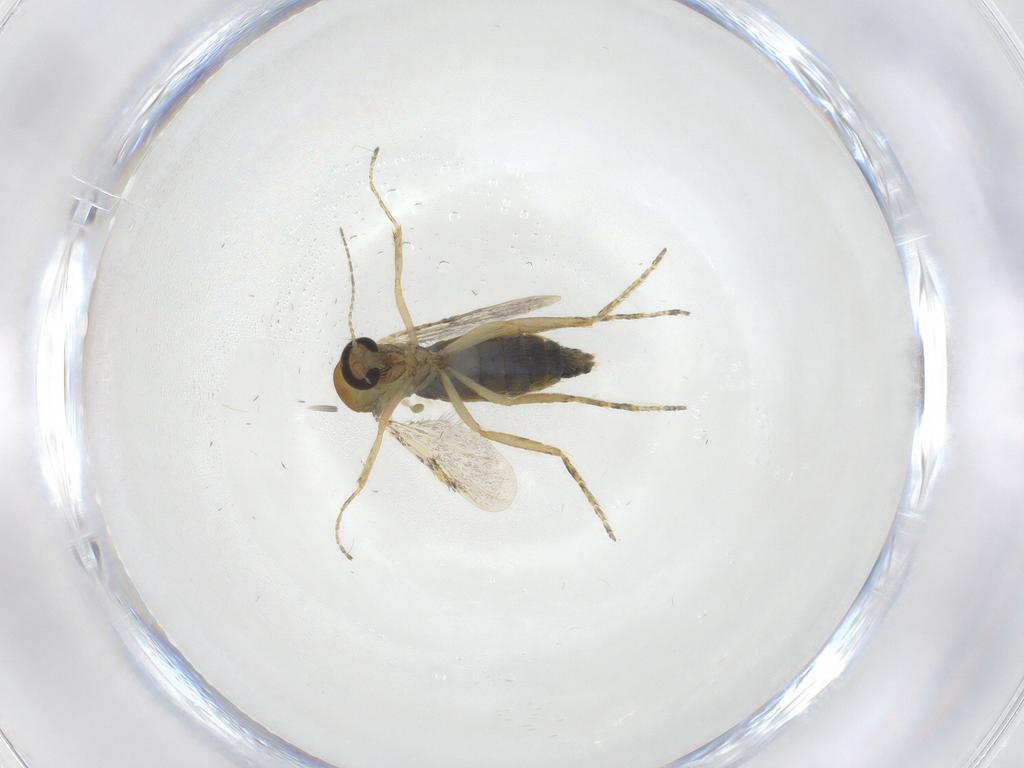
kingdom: Animalia
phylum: Arthropoda
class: Insecta
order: Diptera
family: Ceratopogonidae
